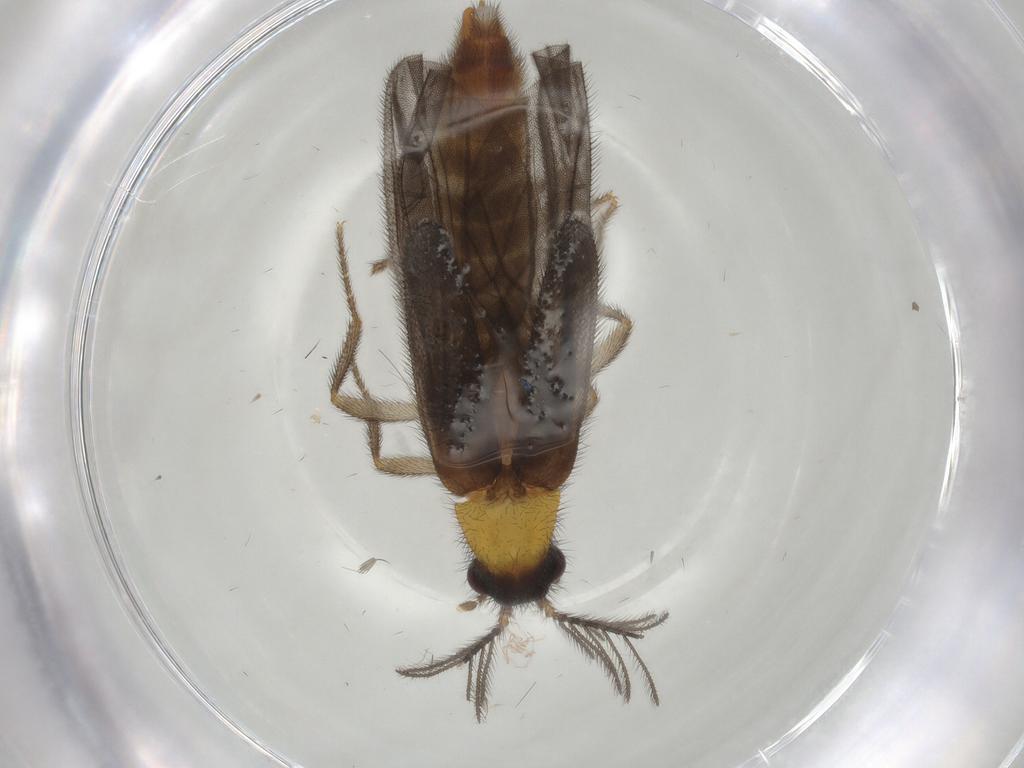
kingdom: Animalia
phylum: Arthropoda
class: Insecta
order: Coleoptera
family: Phengodidae
